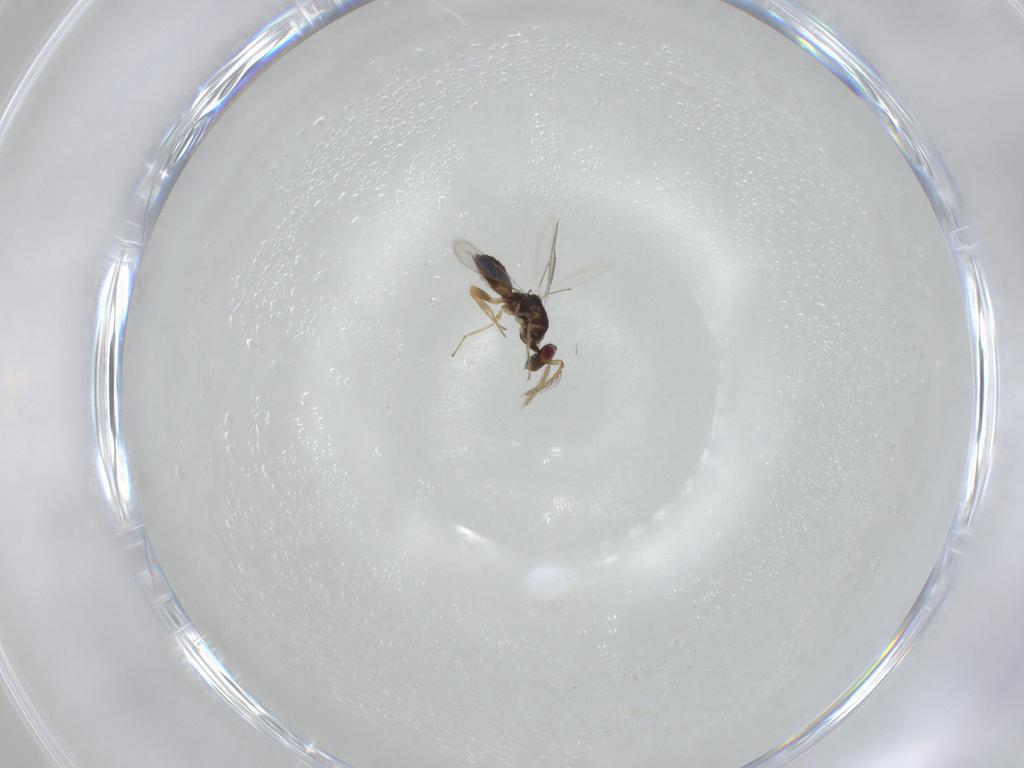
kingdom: Animalia
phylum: Arthropoda
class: Insecta
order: Hymenoptera
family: Eulophidae
